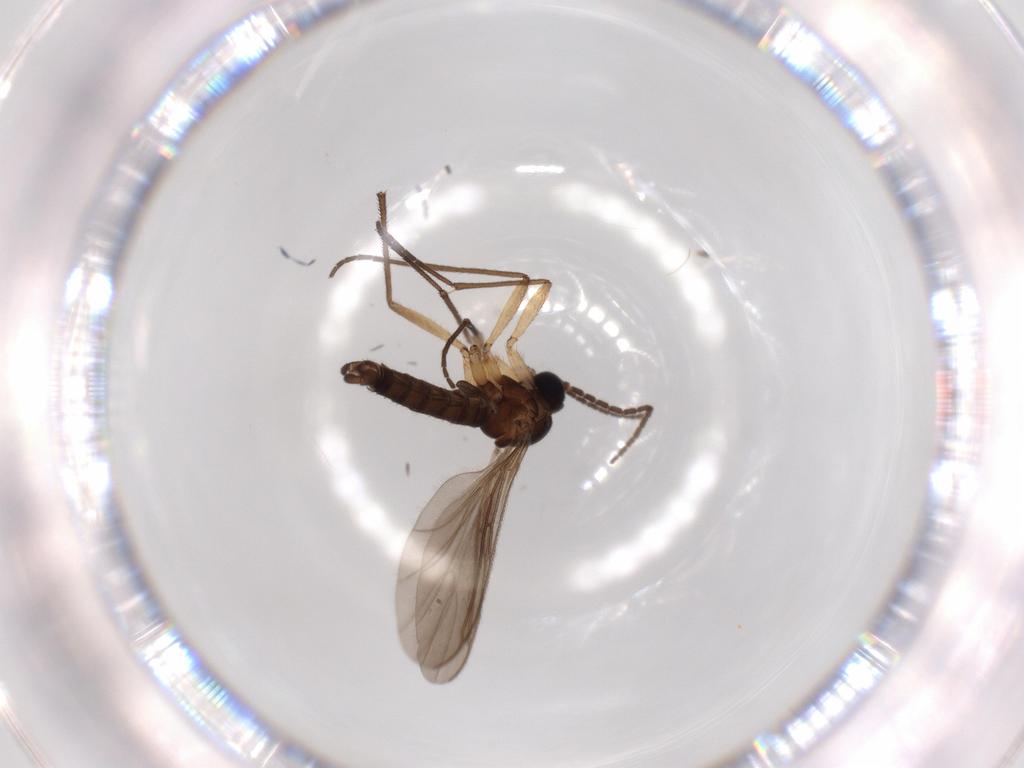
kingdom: Animalia
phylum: Arthropoda
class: Insecta
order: Diptera
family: Sciaridae
